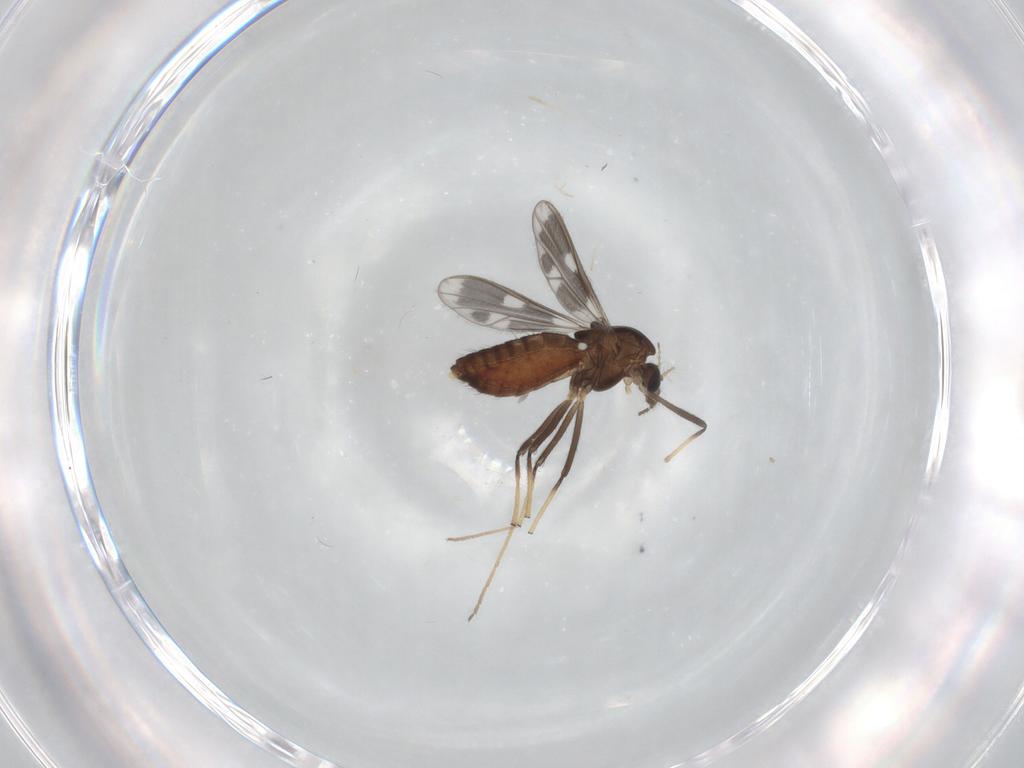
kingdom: Animalia
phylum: Arthropoda
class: Insecta
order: Diptera
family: Chironomidae
